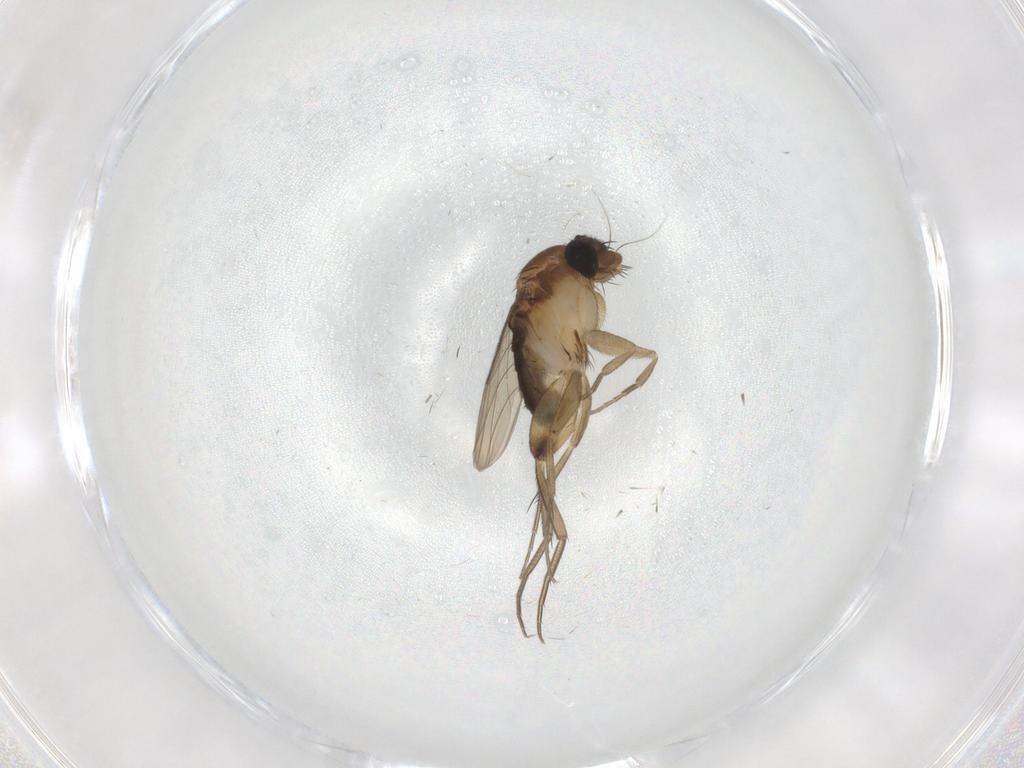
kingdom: Animalia
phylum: Arthropoda
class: Insecta
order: Diptera
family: Phoridae
